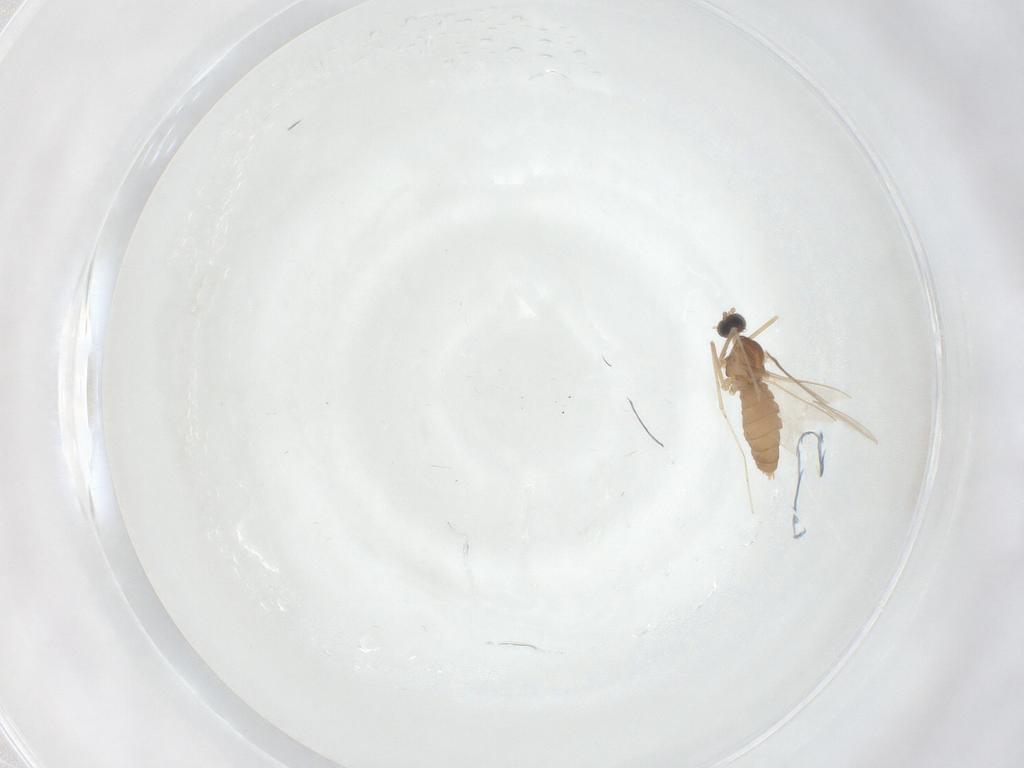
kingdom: Animalia
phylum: Arthropoda
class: Insecta
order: Diptera
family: Cecidomyiidae
